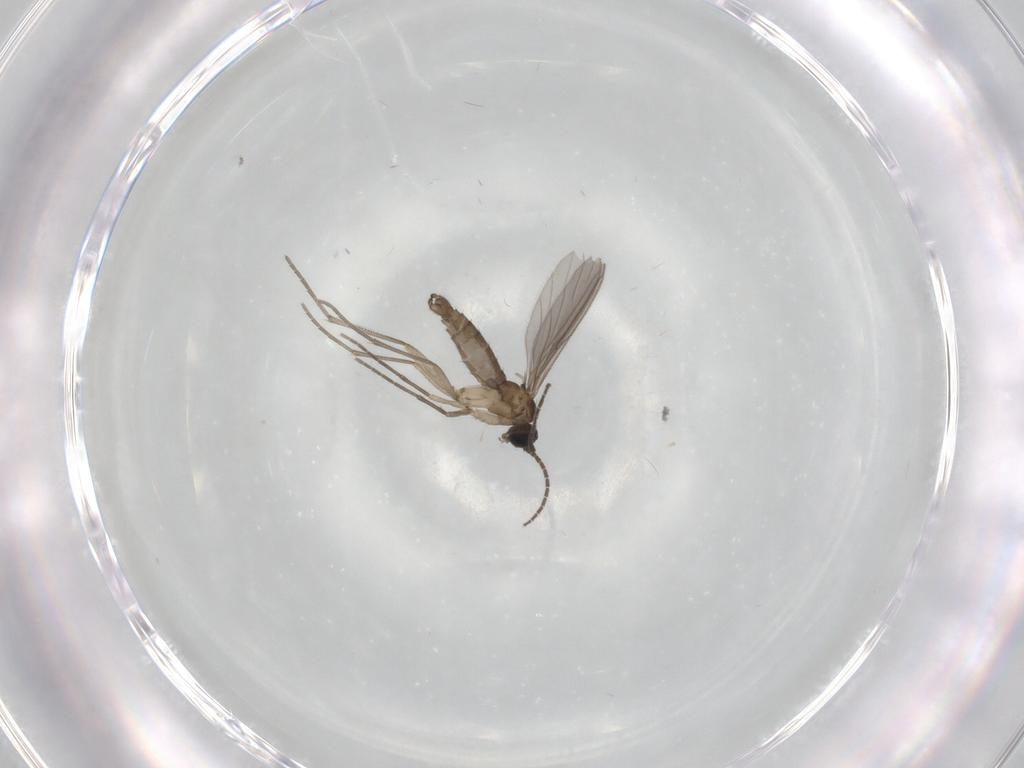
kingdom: Animalia
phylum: Arthropoda
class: Insecta
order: Diptera
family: Sciaridae
